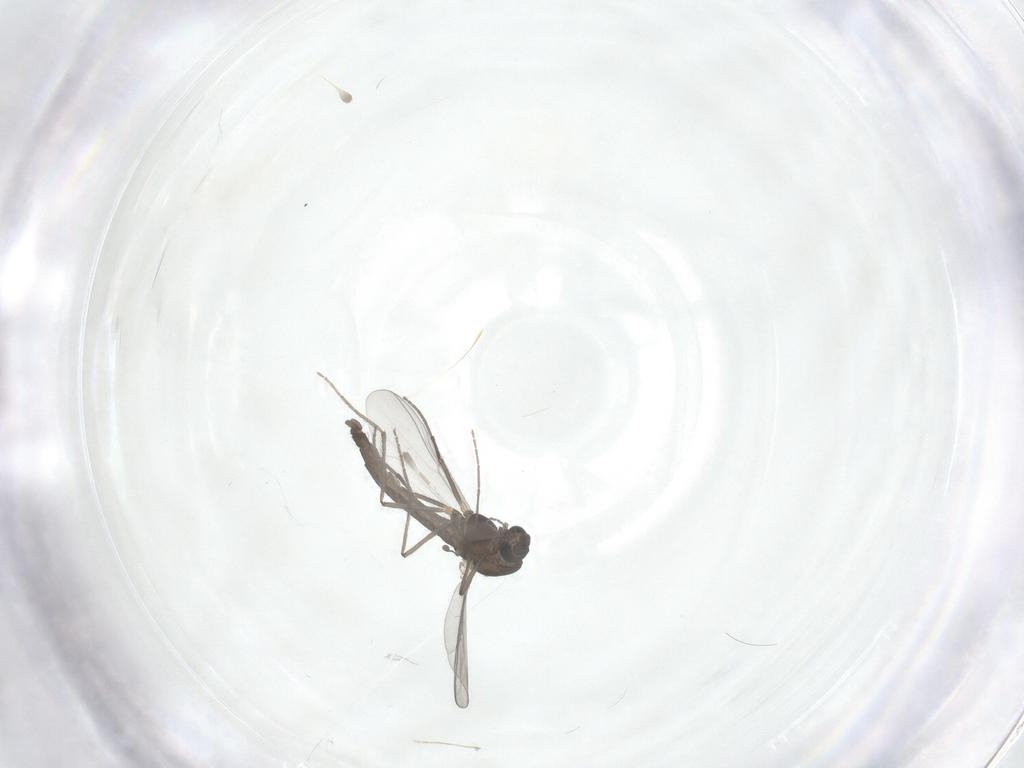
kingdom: Animalia
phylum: Arthropoda
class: Insecta
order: Diptera
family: Chironomidae
